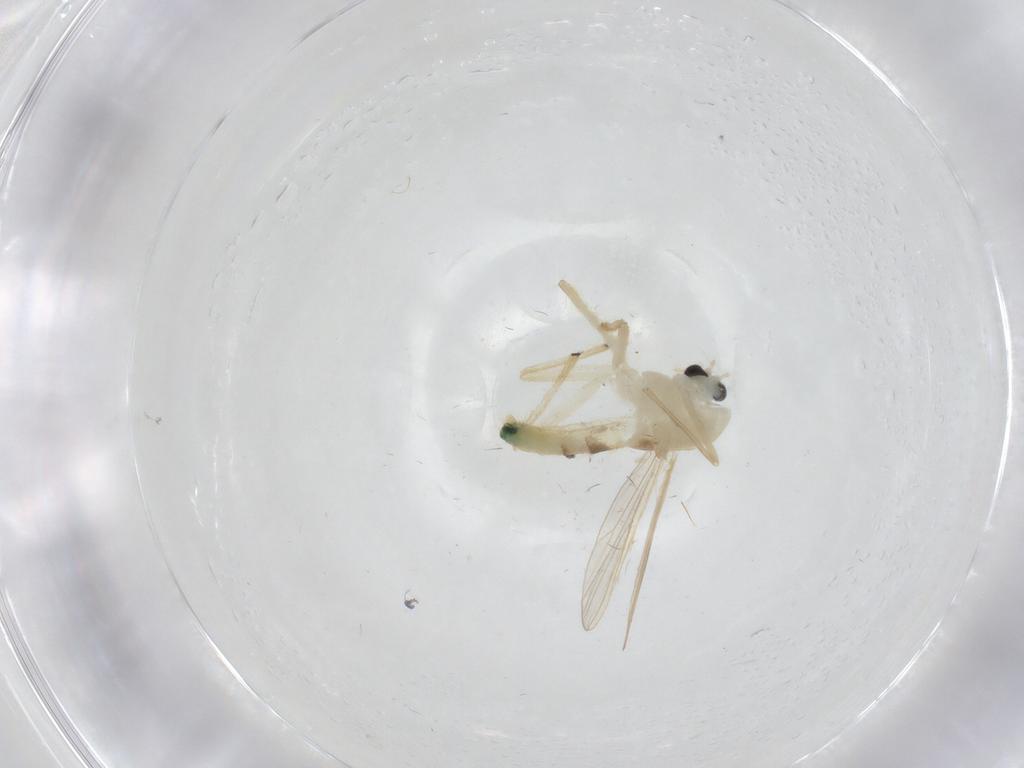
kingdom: Animalia
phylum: Arthropoda
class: Insecta
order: Diptera
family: Chironomidae
